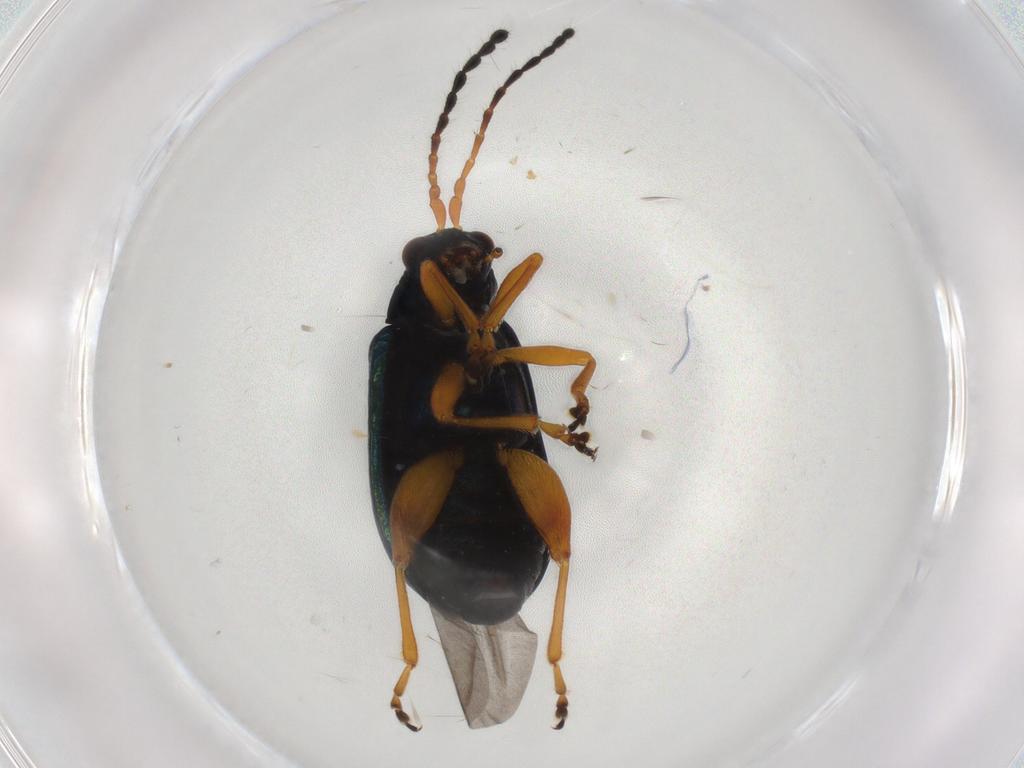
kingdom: Animalia
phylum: Arthropoda
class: Insecta
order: Coleoptera
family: Chrysomelidae
